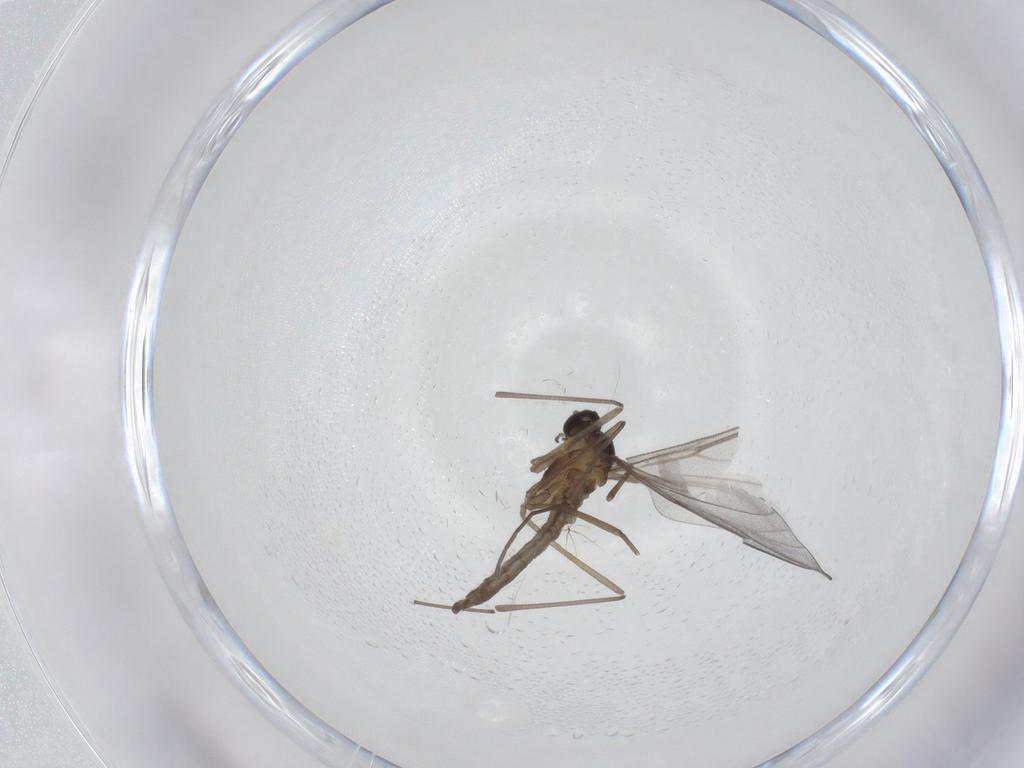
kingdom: Animalia
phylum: Arthropoda
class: Insecta
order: Diptera
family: Cecidomyiidae
